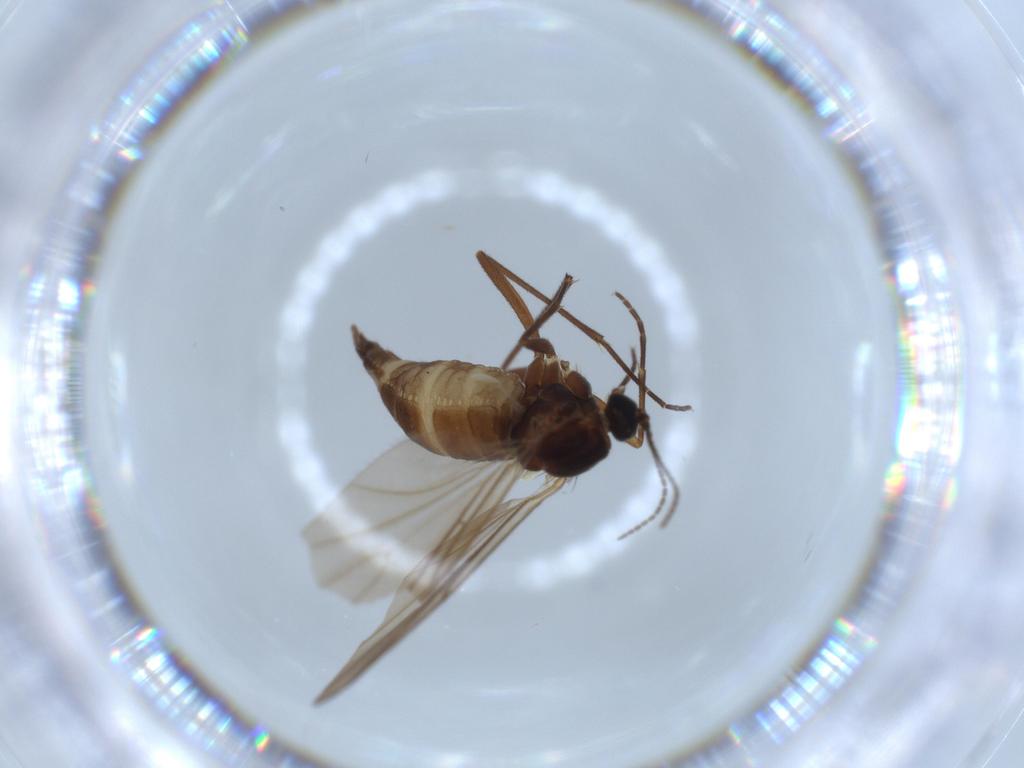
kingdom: Animalia
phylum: Arthropoda
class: Insecta
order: Diptera
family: Sciaridae
